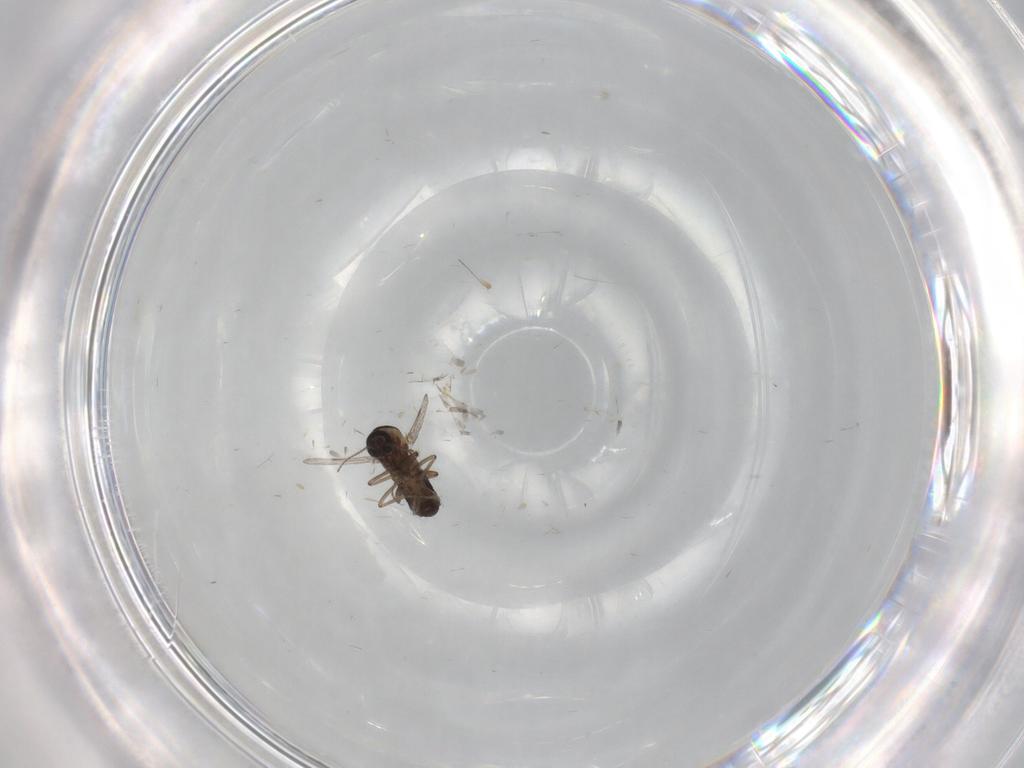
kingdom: Animalia
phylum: Arthropoda
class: Insecta
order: Diptera
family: Ceratopogonidae
